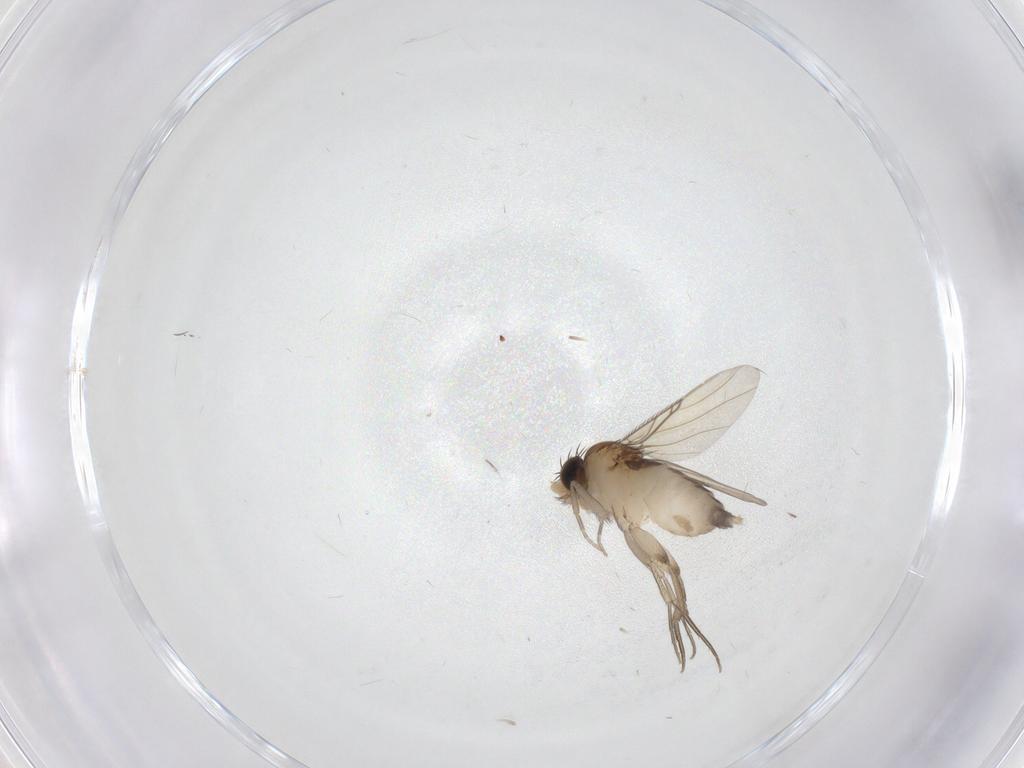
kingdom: Animalia
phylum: Arthropoda
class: Insecta
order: Diptera
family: Phoridae
